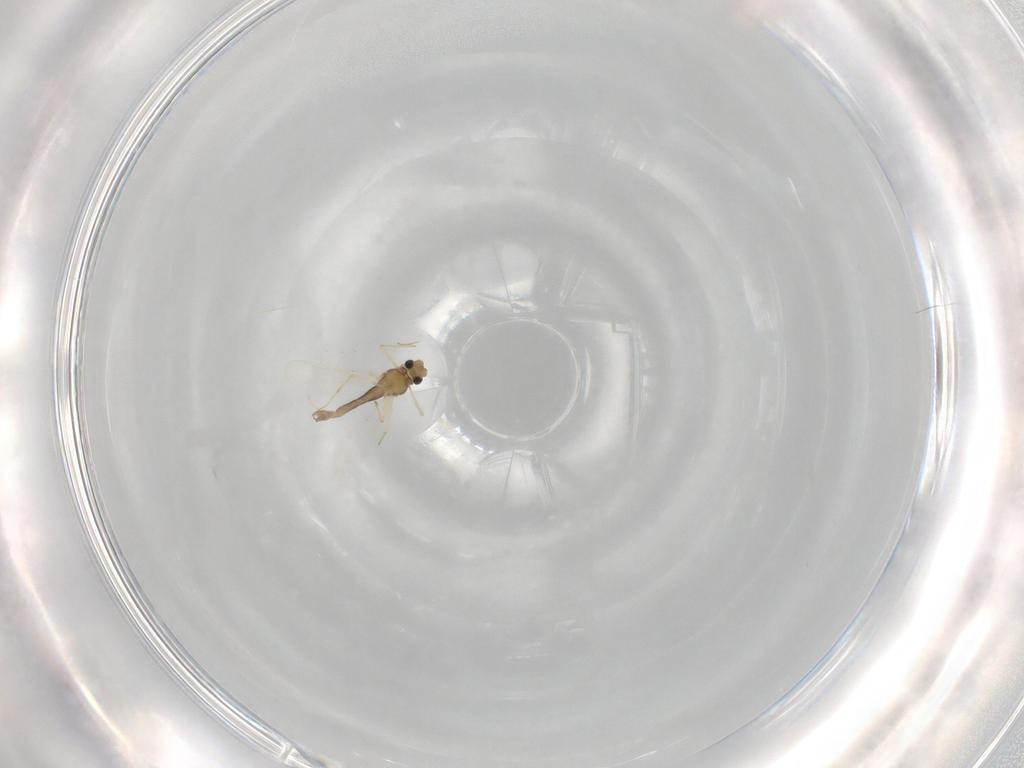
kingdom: Animalia
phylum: Arthropoda
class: Insecta
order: Diptera
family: Chironomidae
